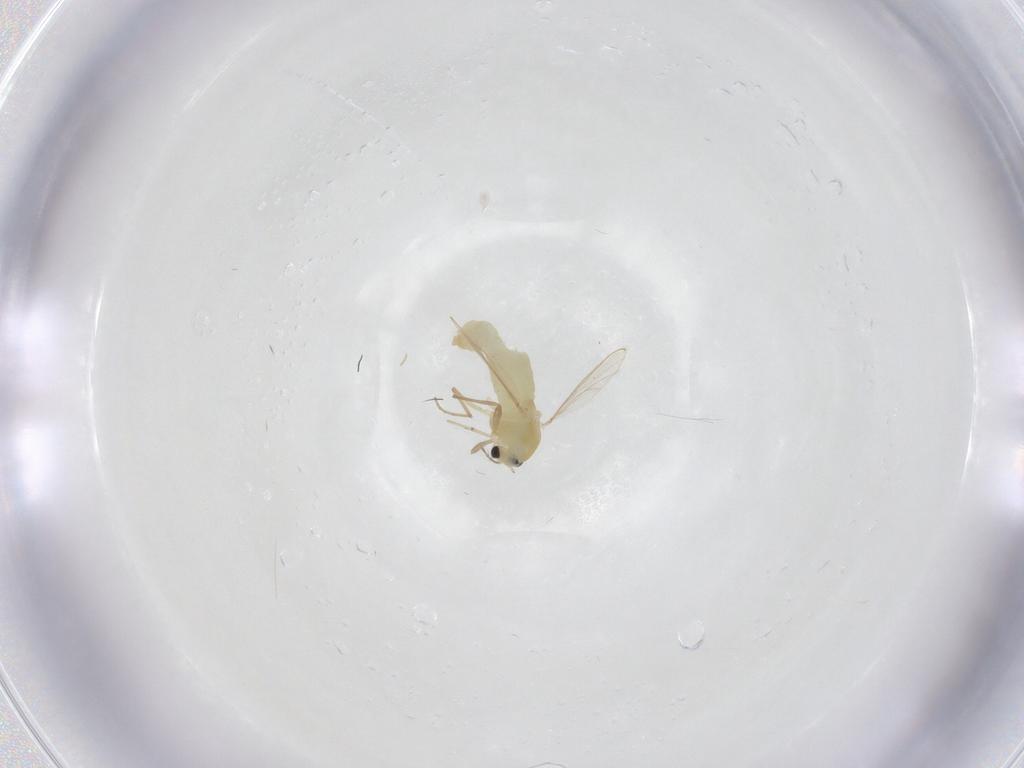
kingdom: Animalia
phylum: Arthropoda
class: Insecta
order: Diptera
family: Chironomidae
